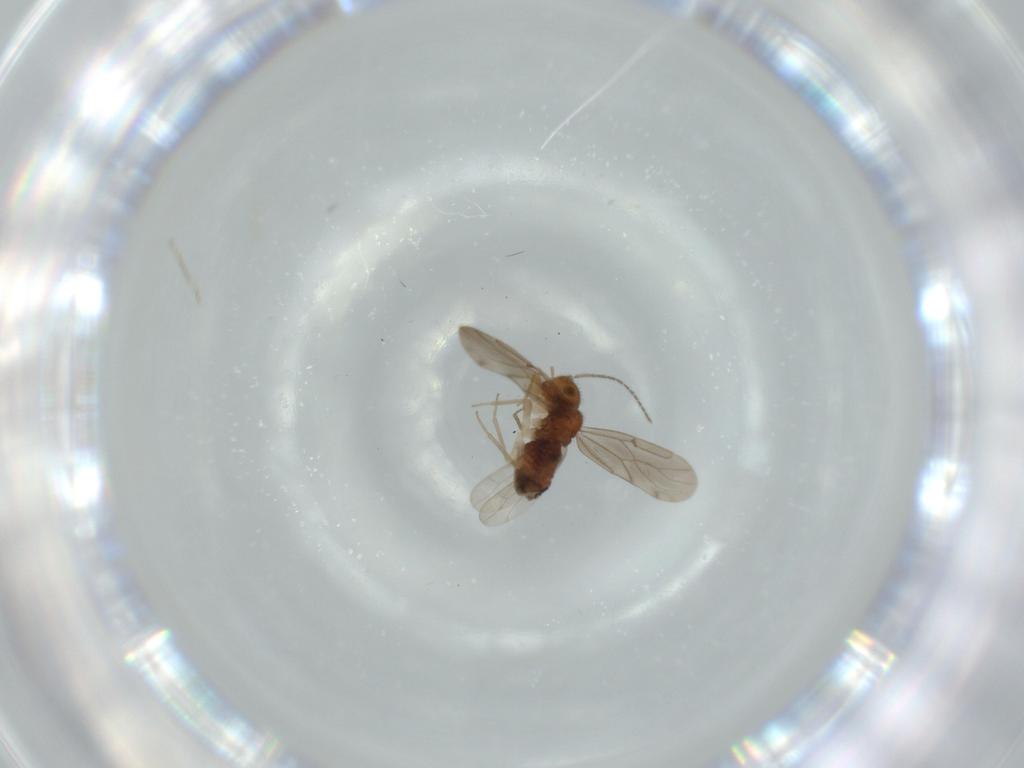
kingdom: Animalia
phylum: Arthropoda
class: Insecta
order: Psocodea
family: Ectopsocidae
